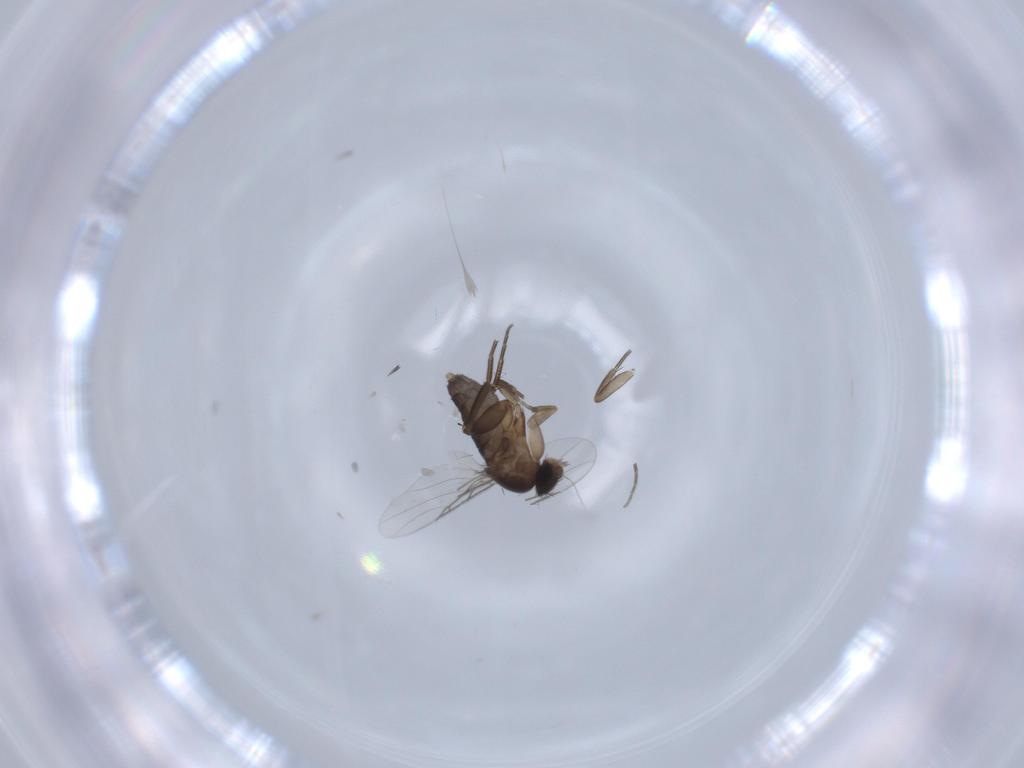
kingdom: Animalia
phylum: Arthropoda
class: Insecta
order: Diptera
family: Phoridae
